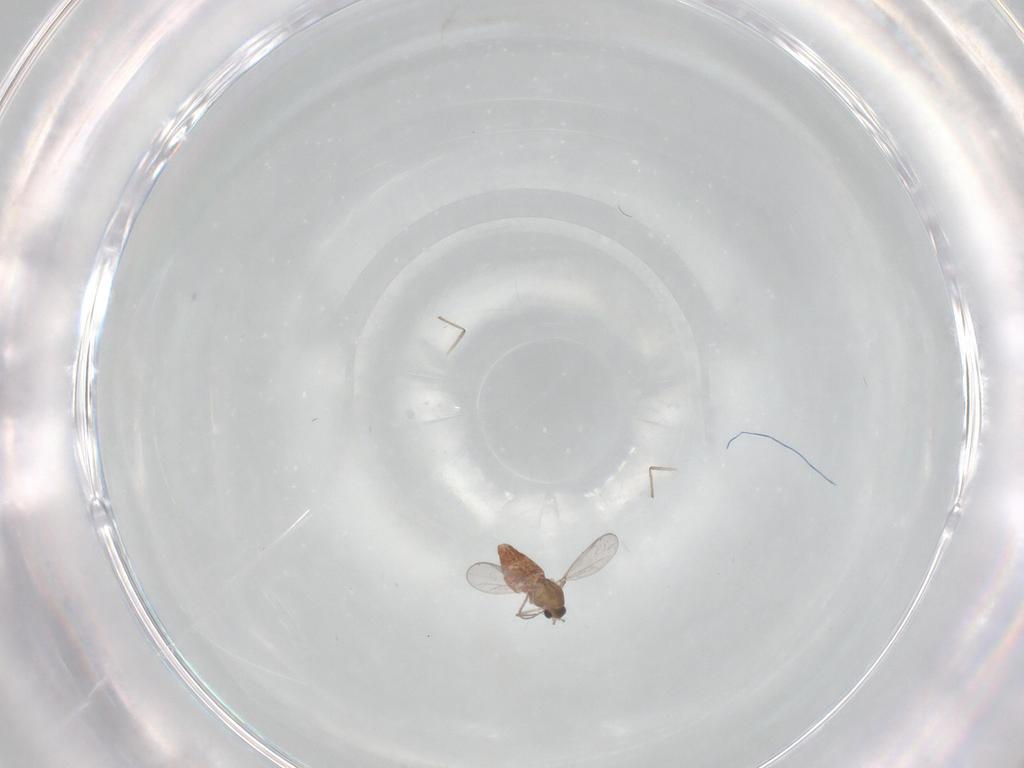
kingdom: Animalia
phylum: Arthropoda
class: Insecta
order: Diptera
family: Chironomidae
